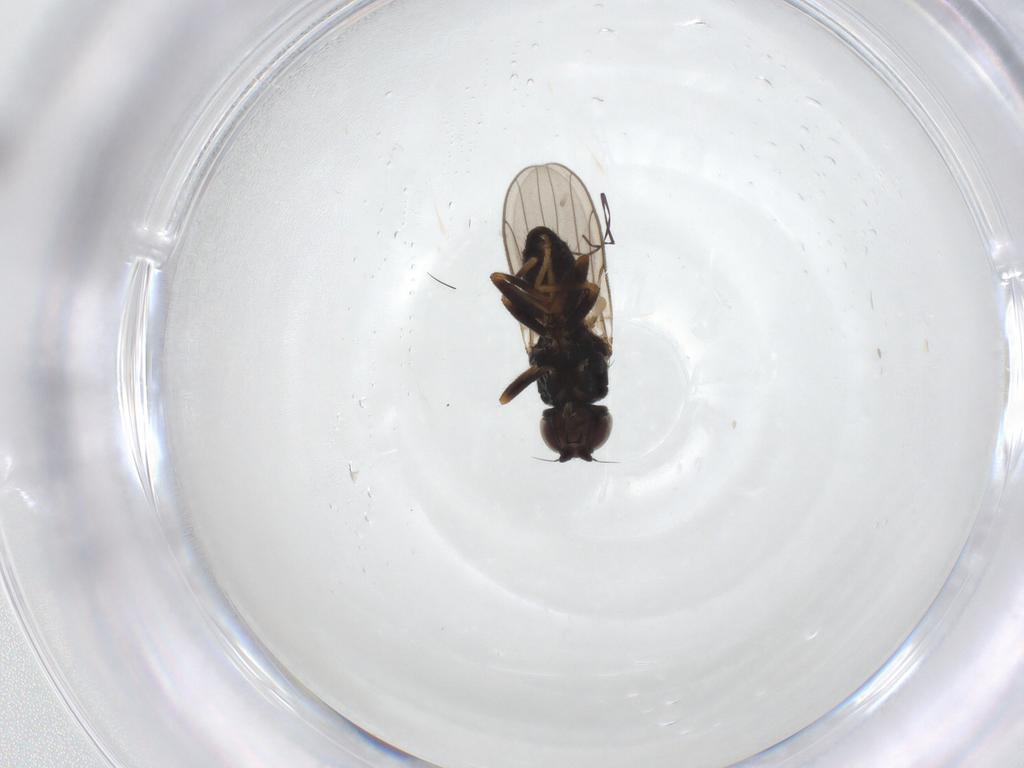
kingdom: Animalia
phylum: Arthropoda
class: Insecta
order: Diptera
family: Chloropidae
